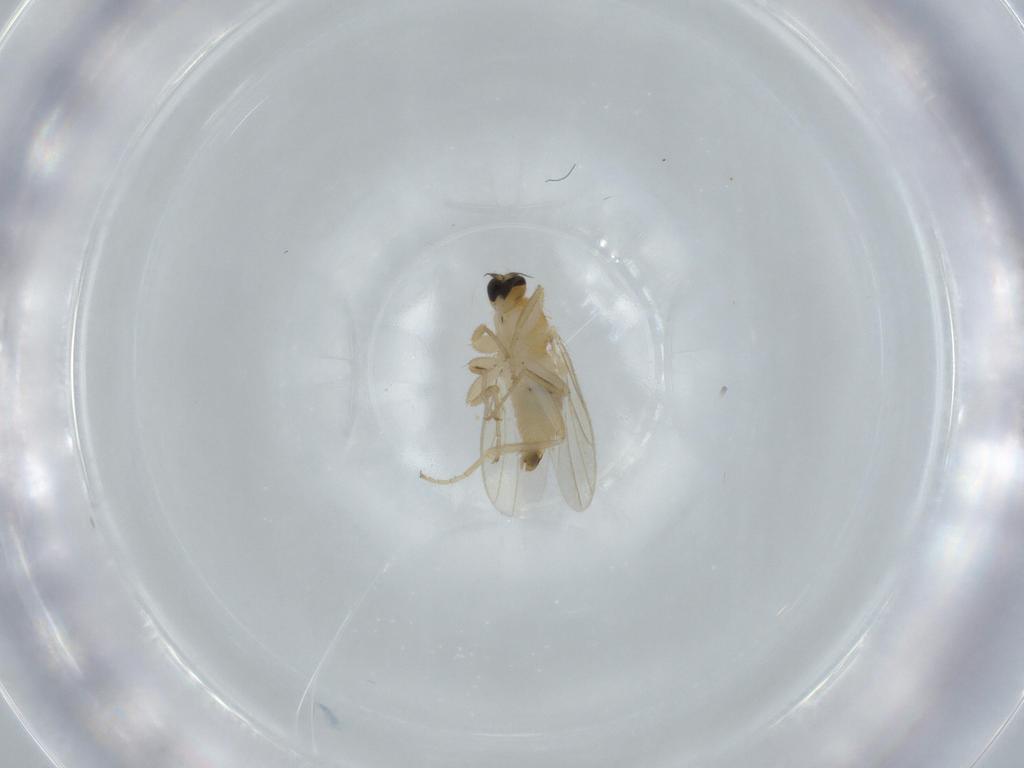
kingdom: Animalia
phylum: Arthropoda
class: Insecta
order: Diptera
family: Hybotidae
